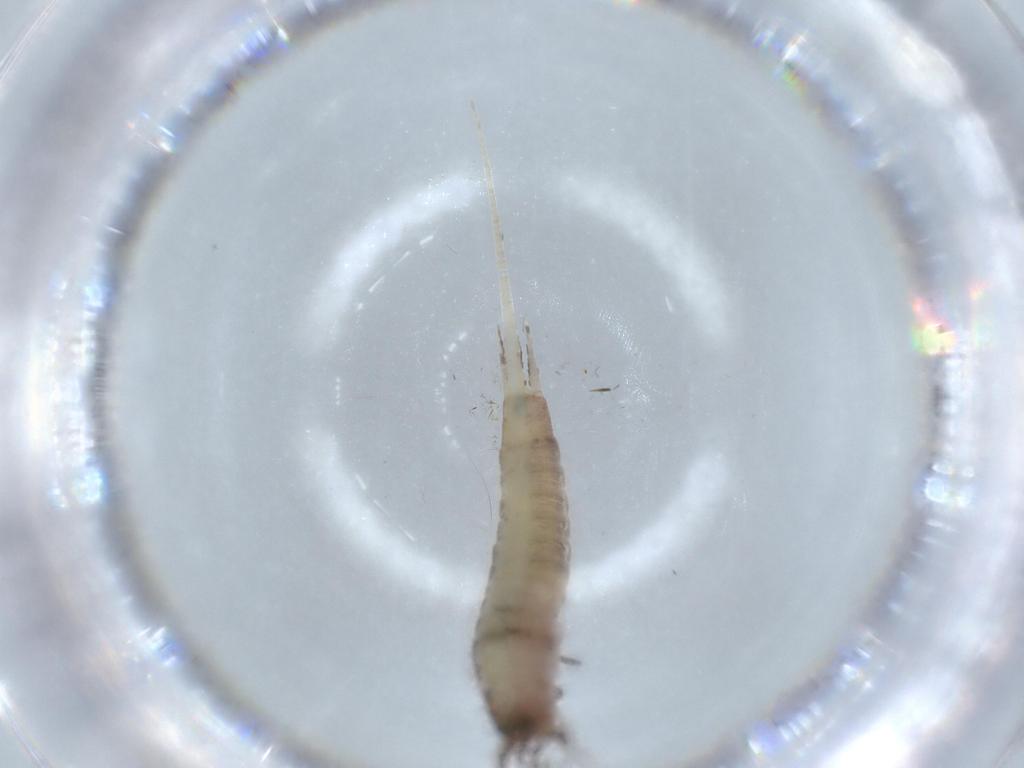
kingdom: Animalia
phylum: Arthropoda
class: Insecta
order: Archaeognatha
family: Machilidae
